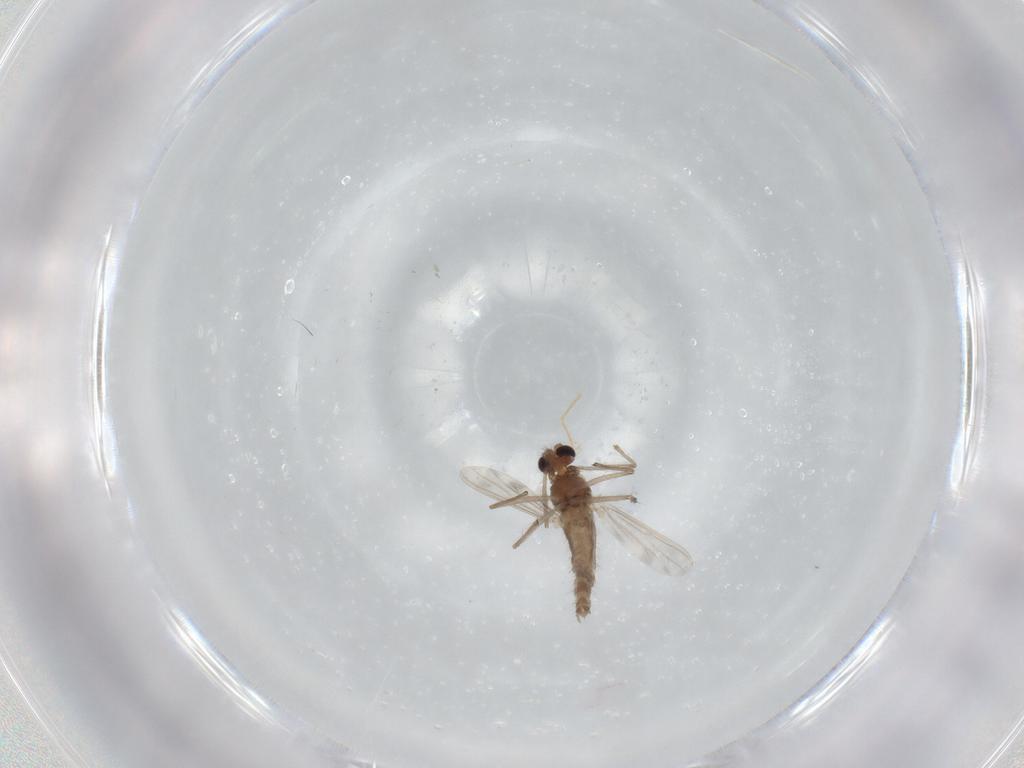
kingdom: Animalia
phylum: Arthropoda
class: Insecta
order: Diptera
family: Chironomidae
